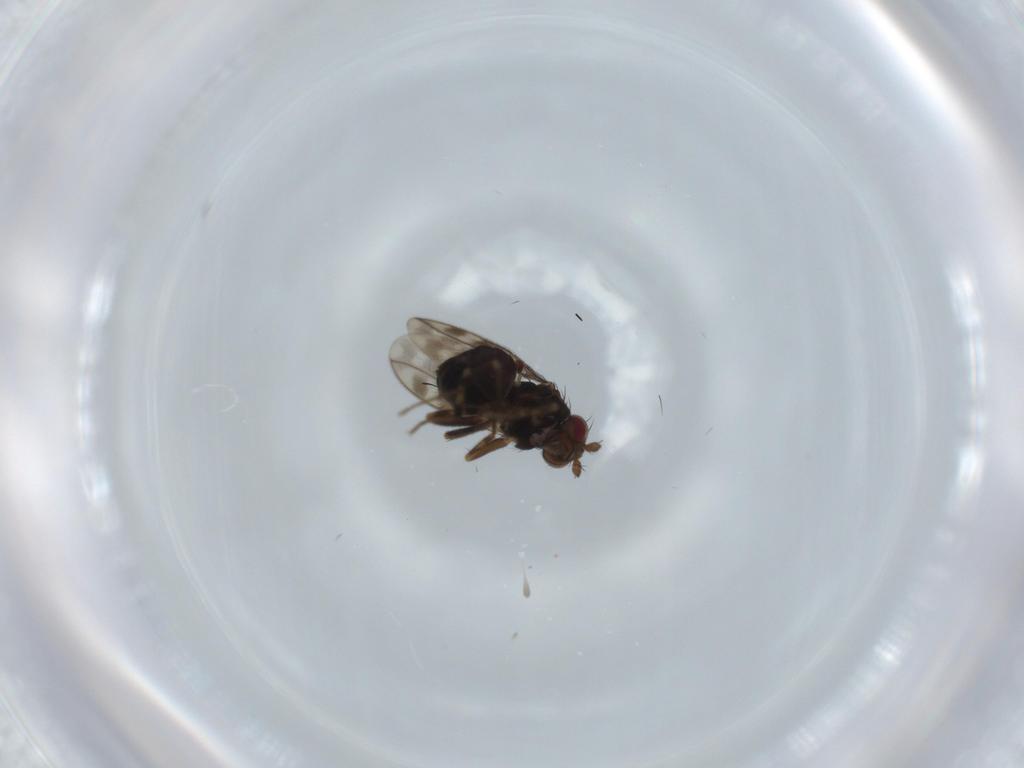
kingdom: Animalia
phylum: Arthropoda
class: Insecta
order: Diptera
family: Sphaeroceridae
